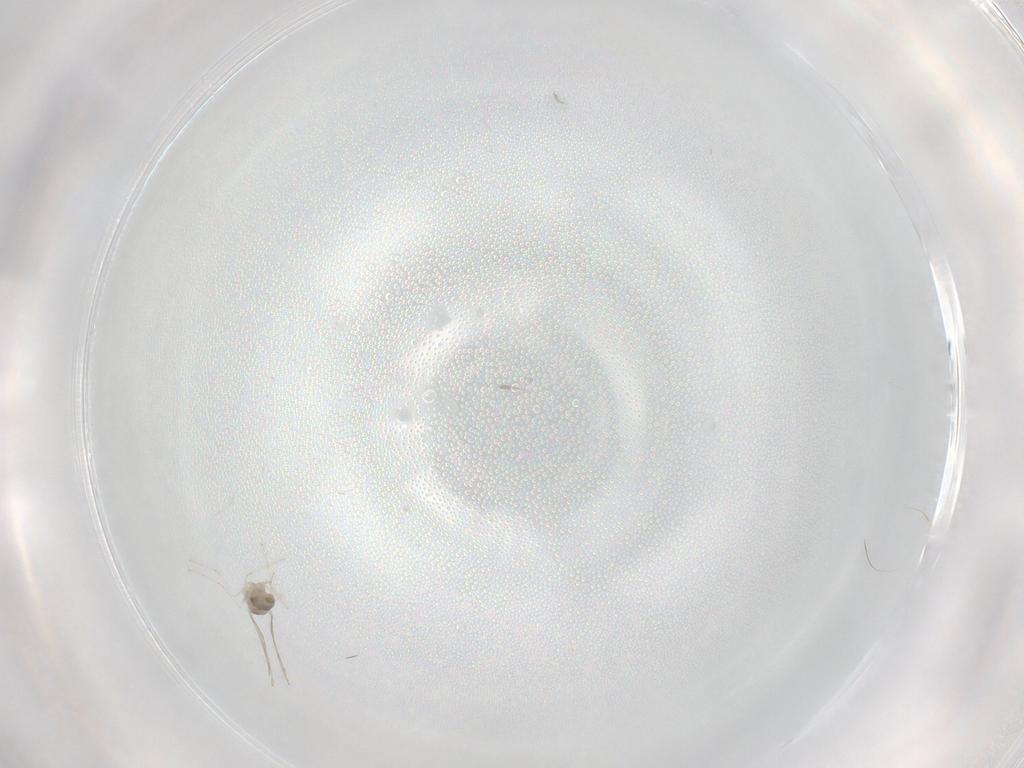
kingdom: Animalia
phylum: Arthropoda
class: Insecta
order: Diptera
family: Cecidomyiidae
